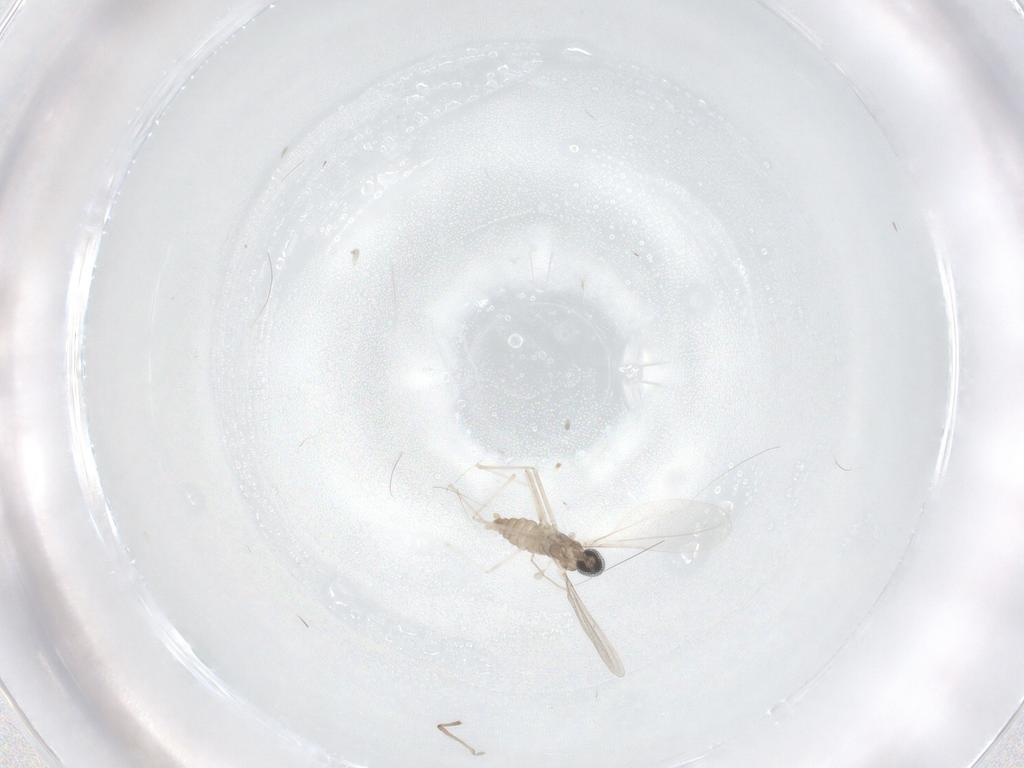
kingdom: Animalia
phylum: Arthropoda
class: Insecta
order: Diptera
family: Cecidomyiidae
